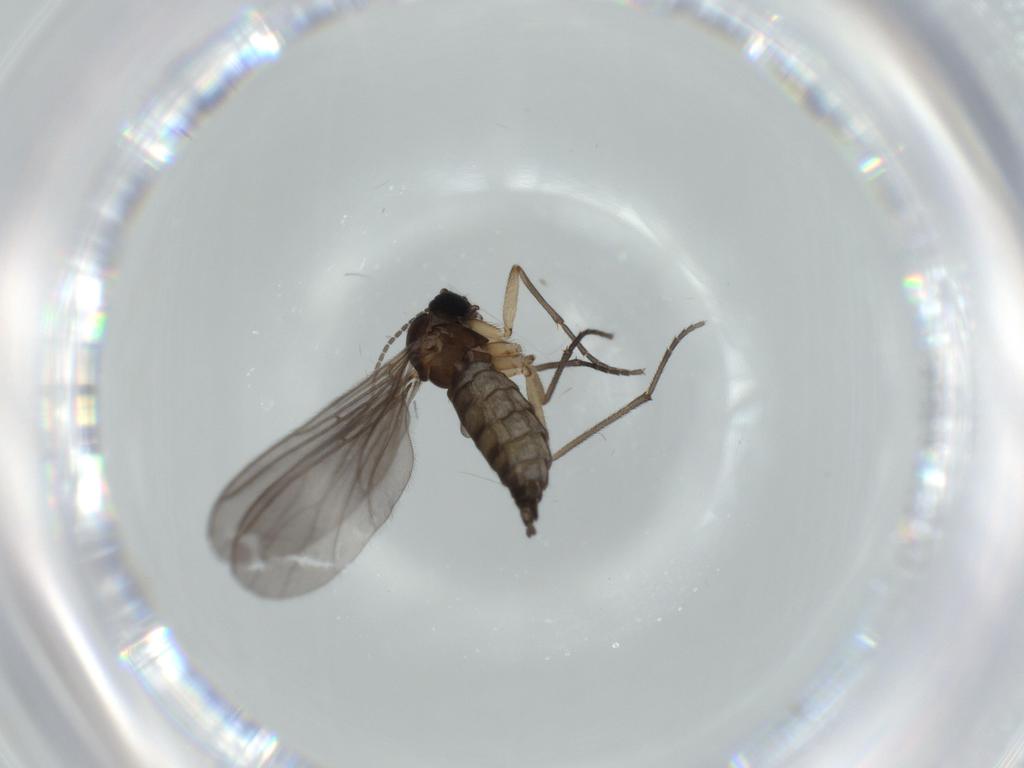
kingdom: Animalia
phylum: Arthropoda
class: Insecta
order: Diptera
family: Sciaridae
